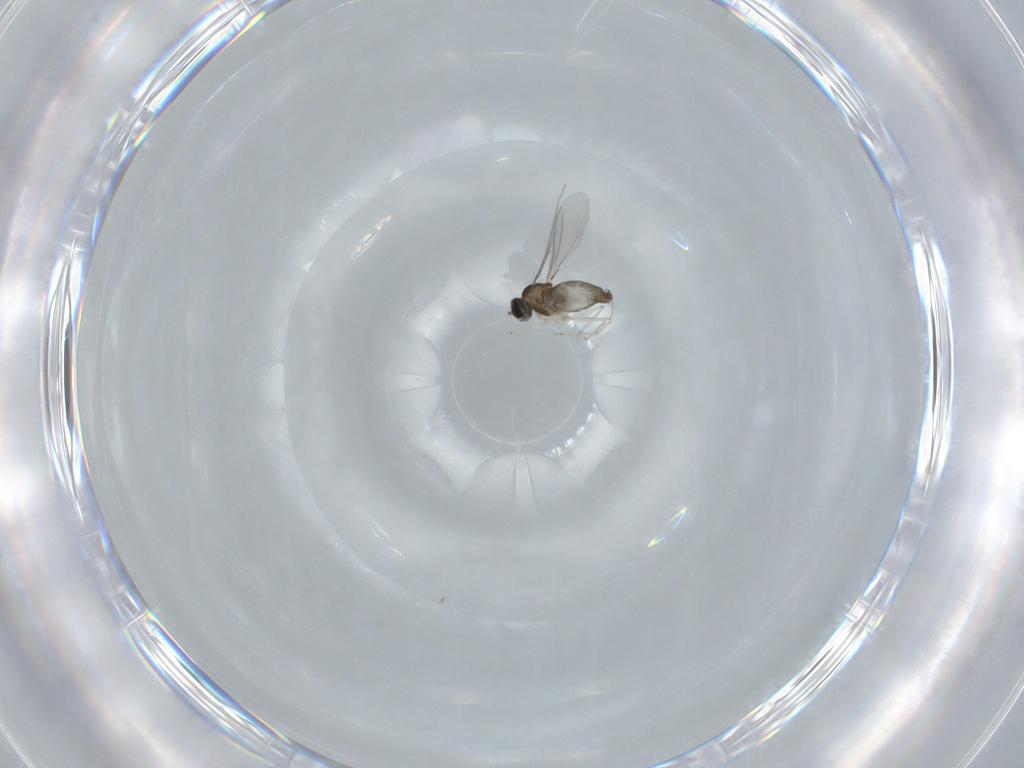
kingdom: Animalia
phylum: Arthropoda
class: Insecta
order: Diptera
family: Cecidomyiidae
